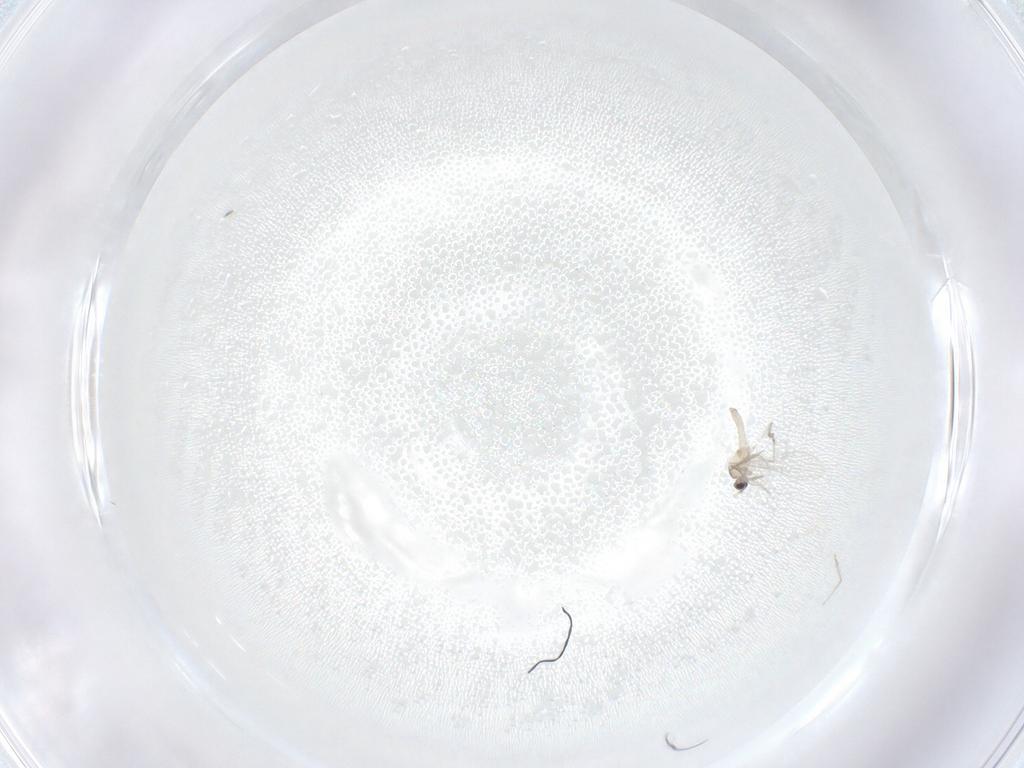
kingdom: Animalia
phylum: Arthropoda
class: Insecta
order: Diptera
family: Cecidomyiidae
